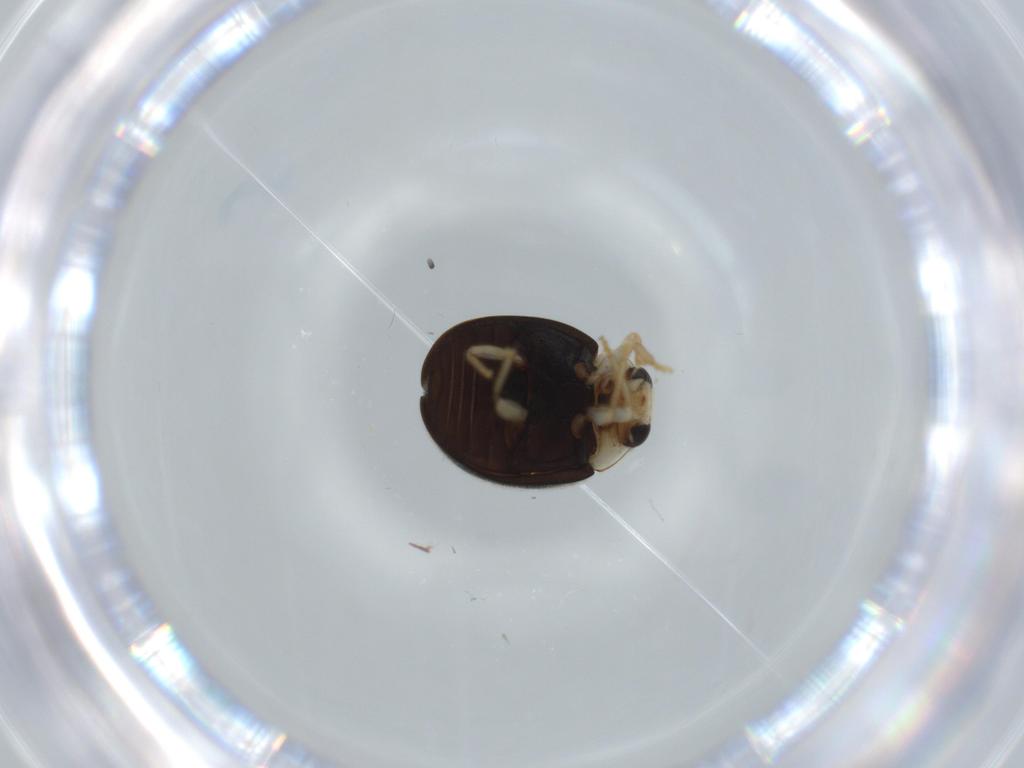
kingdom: Animalia
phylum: Arthropoda
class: Insecta
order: Coleoptera
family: Coccinellidae
